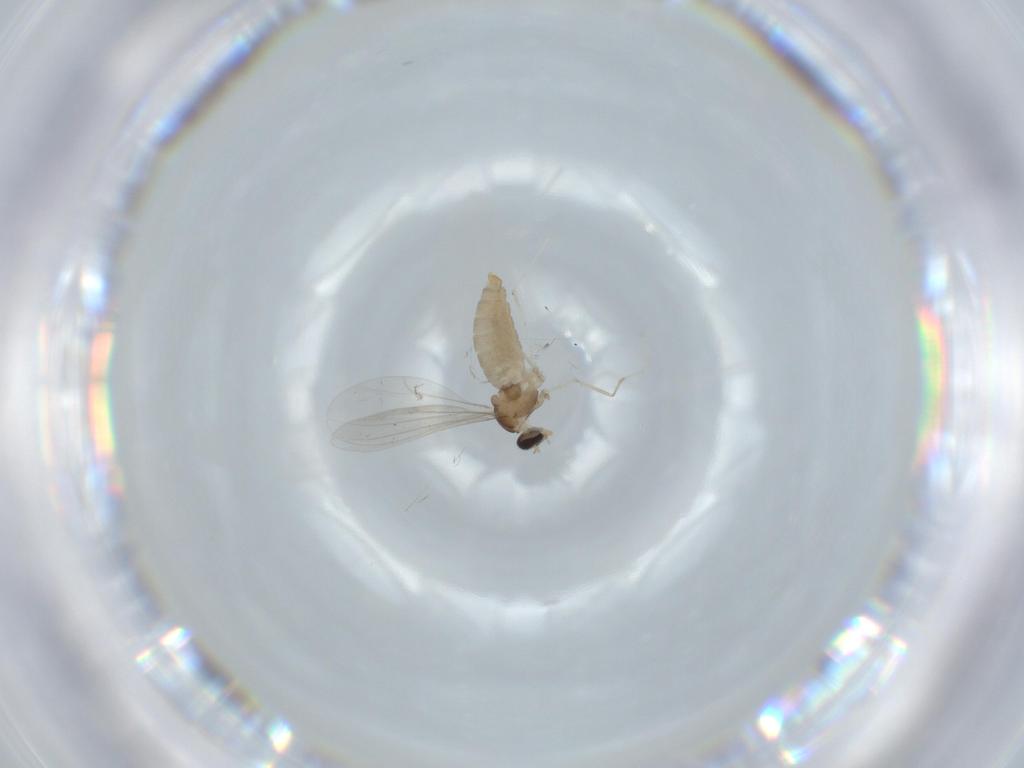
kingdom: Animalia
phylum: Arthropoda
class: Insecta
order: Diptera
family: Cecidomyiidae
